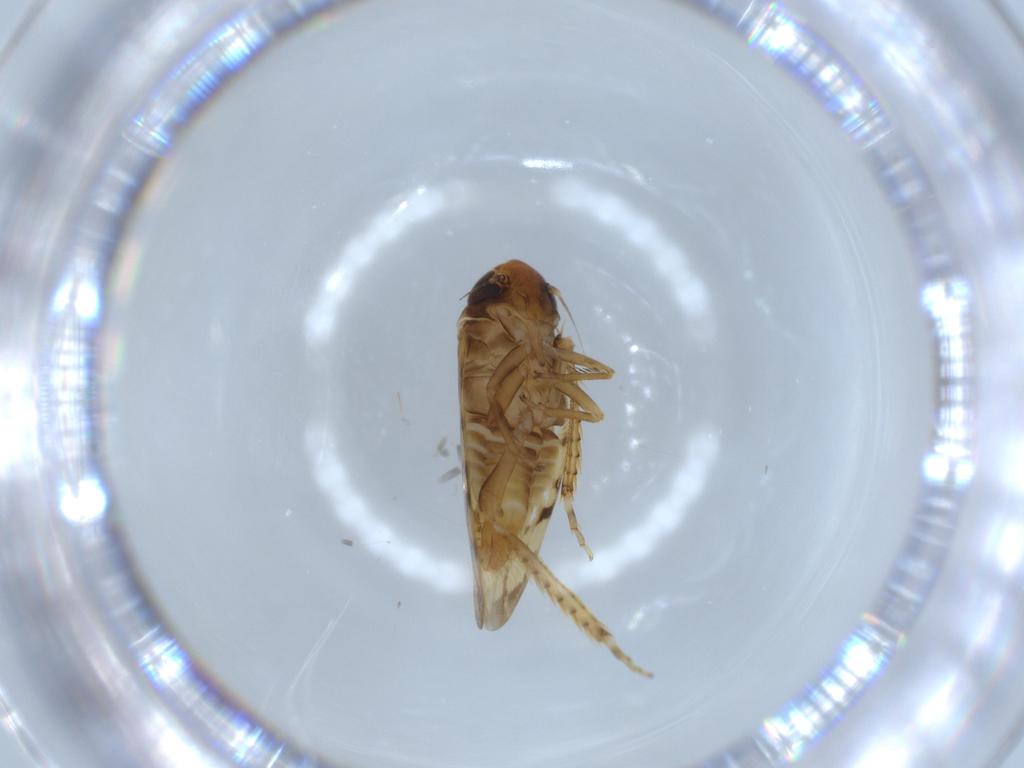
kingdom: Animalia
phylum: Arthropoda
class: Insecta
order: Hemiptera
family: Cicadellidae
